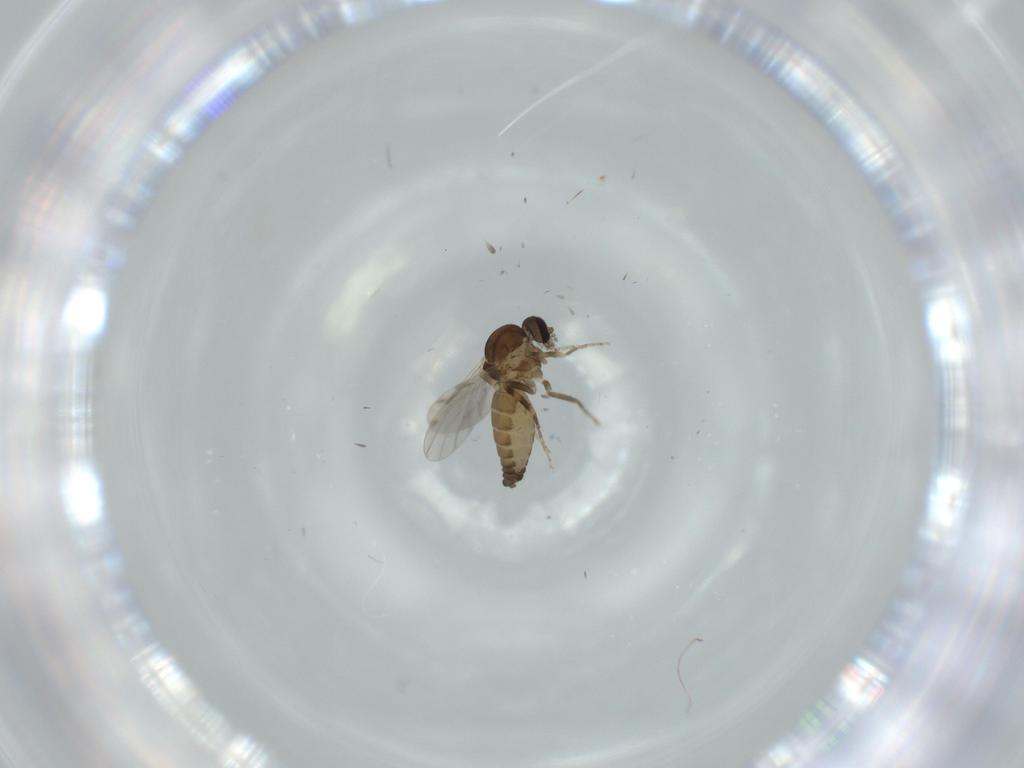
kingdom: Animalia
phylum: Arthropoda
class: Insecta
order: Diptera
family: Ceratopogonidae
